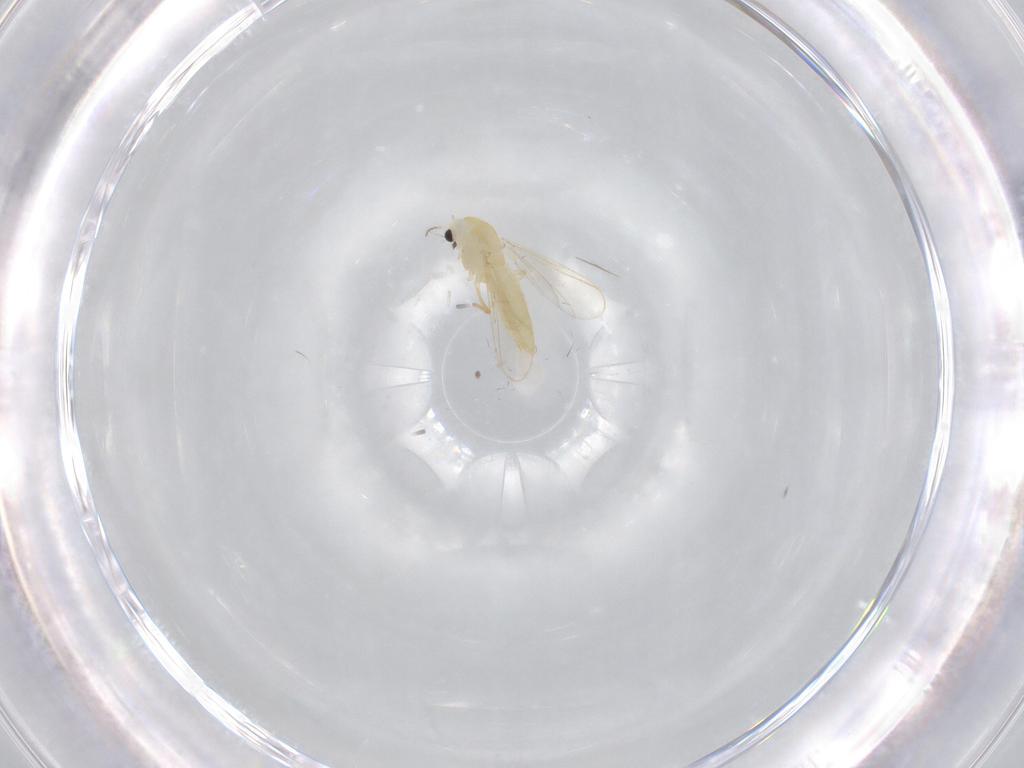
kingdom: Animalia
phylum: Arthropoda
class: Insecta
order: Diptera
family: Chironomidae
